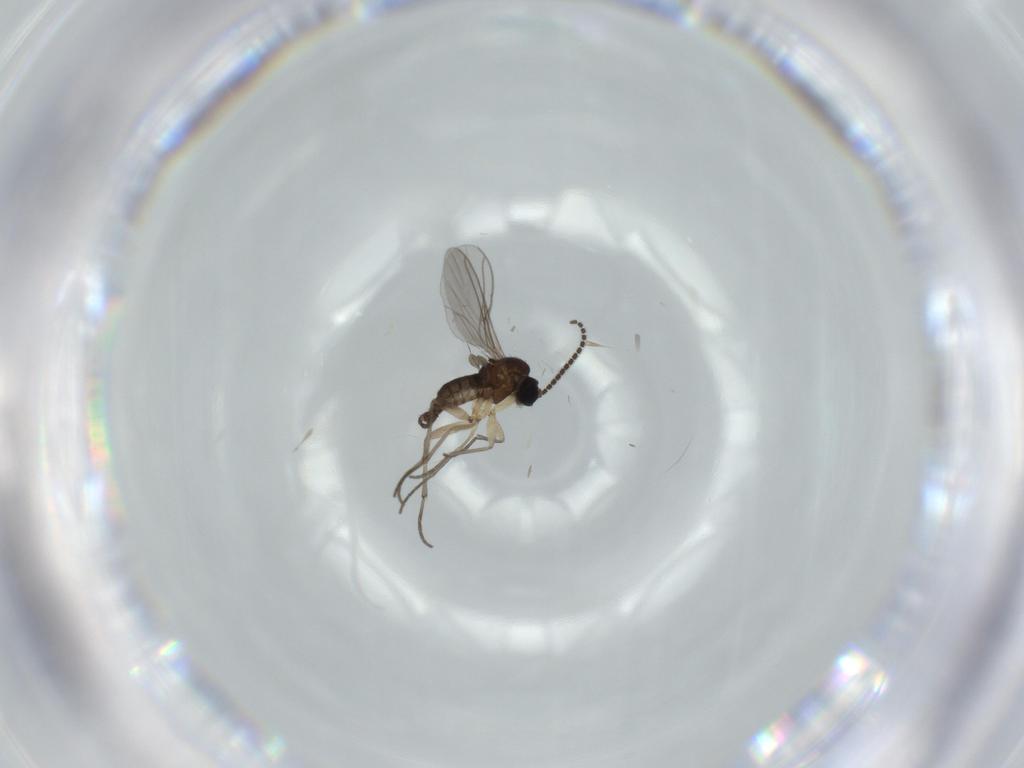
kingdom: Animalia
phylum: Arthropoda
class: Insecta
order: Diptera
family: Sciaridae
